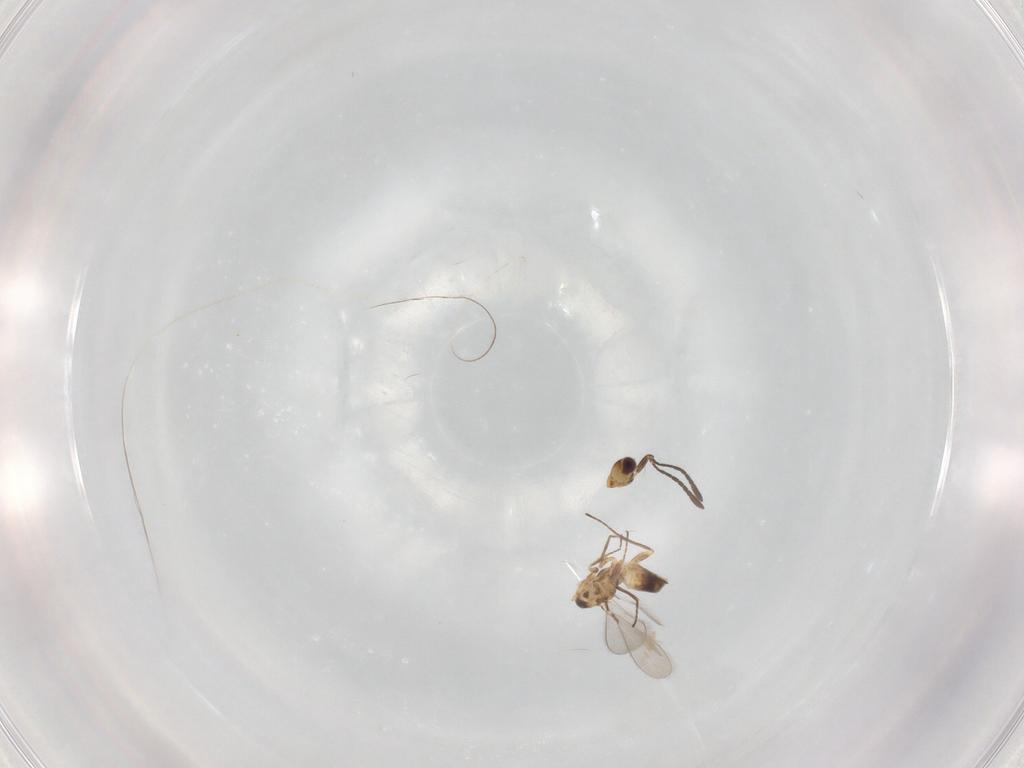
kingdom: Animalia
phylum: Arthropoda
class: Insecta
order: Hymenoptera
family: Mymaridae
